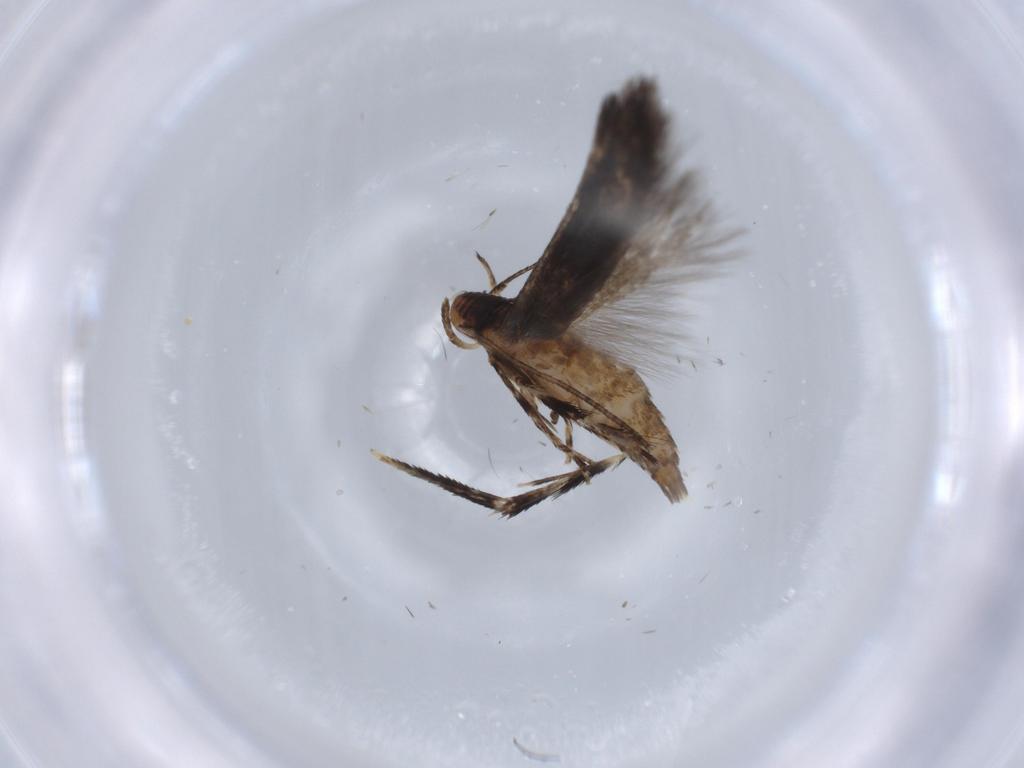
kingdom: Animalia
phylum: Arthropoda
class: Insecta
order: Lepidoptera
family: Momphidae
